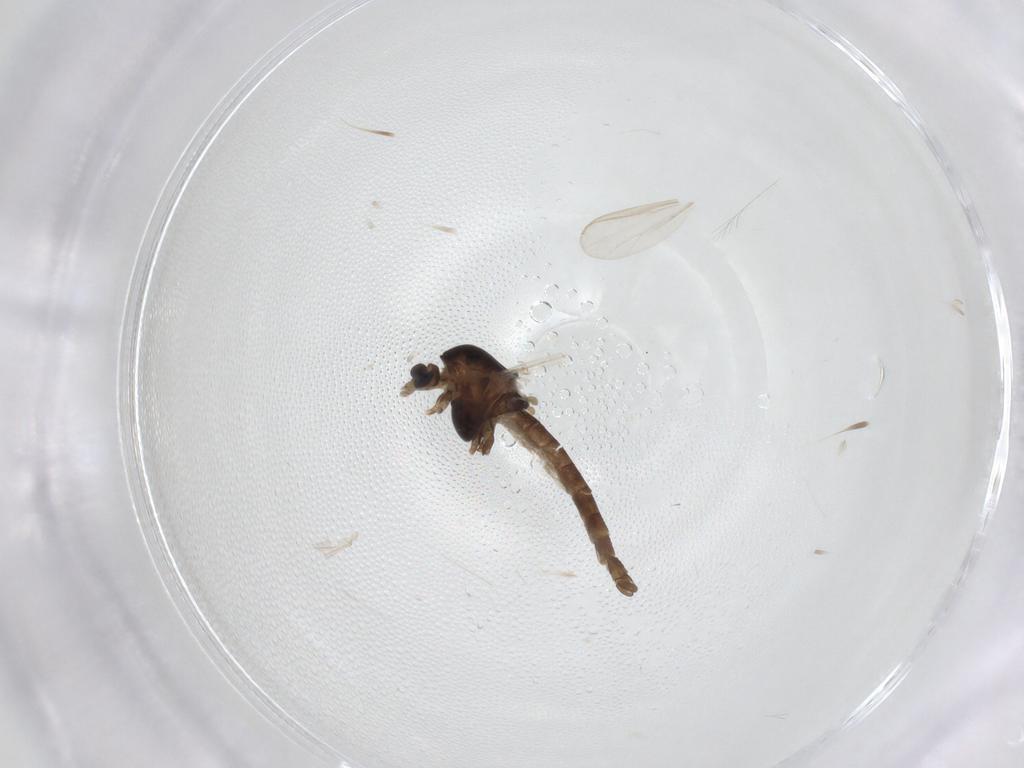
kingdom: Animalia
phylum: Arthropoda
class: Insecta
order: Diptera
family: Chironomidae
